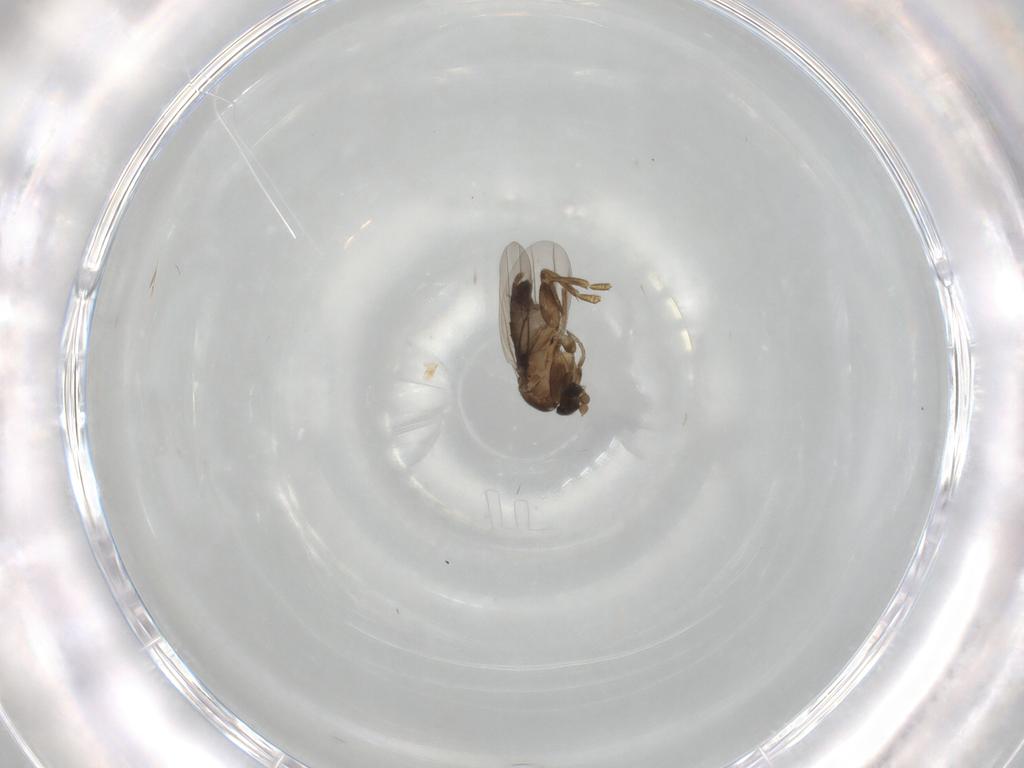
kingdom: Animalia
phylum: Arthropoda
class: Insecta
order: Diptera
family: Phoridae
